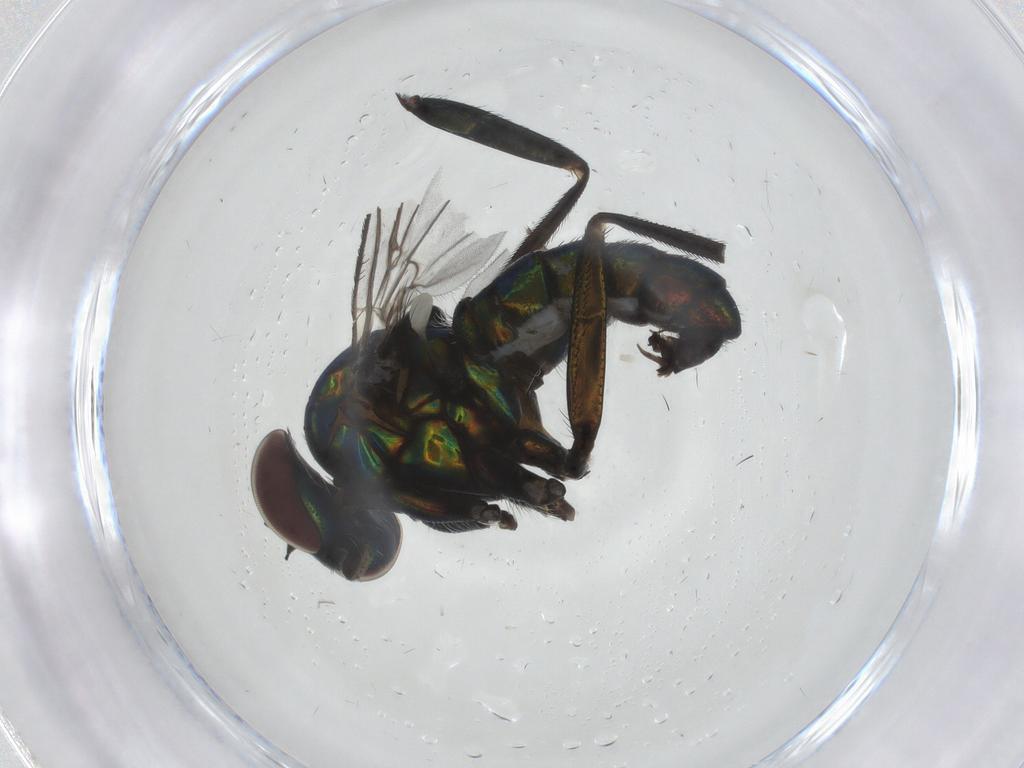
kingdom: Animalia
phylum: Arthropoda
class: Insecta
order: Diptera
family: Dolichopodidae
